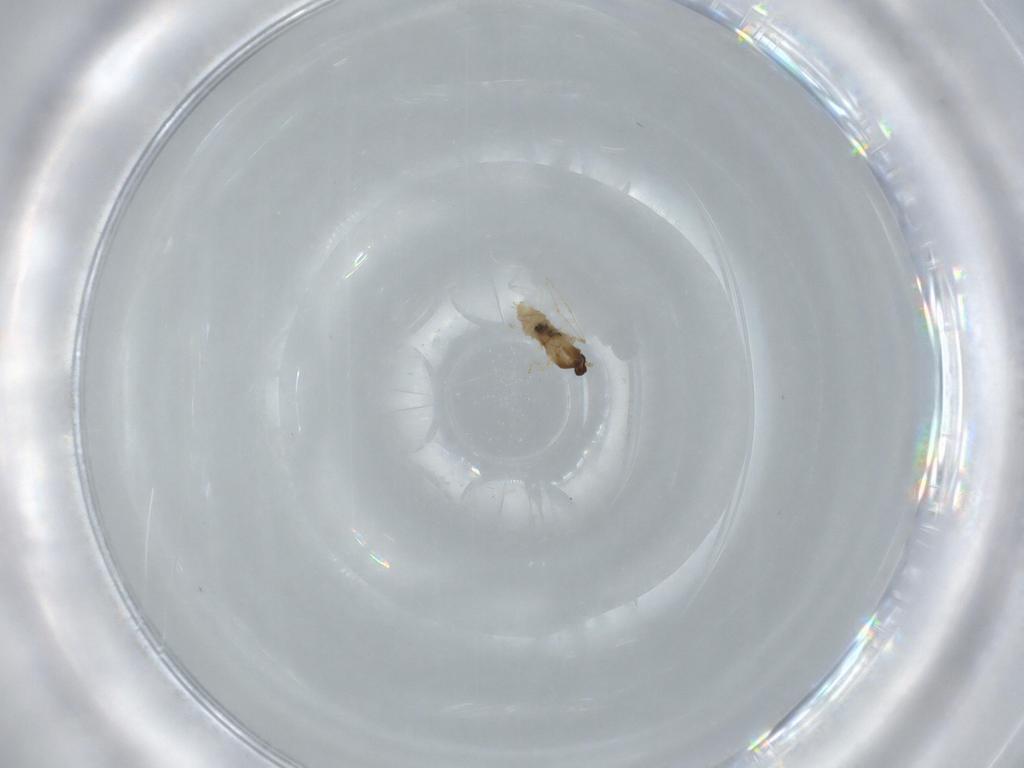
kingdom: Animalia
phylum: Arthropoda
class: Insecta
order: Diptera
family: Cecidomyiidae
